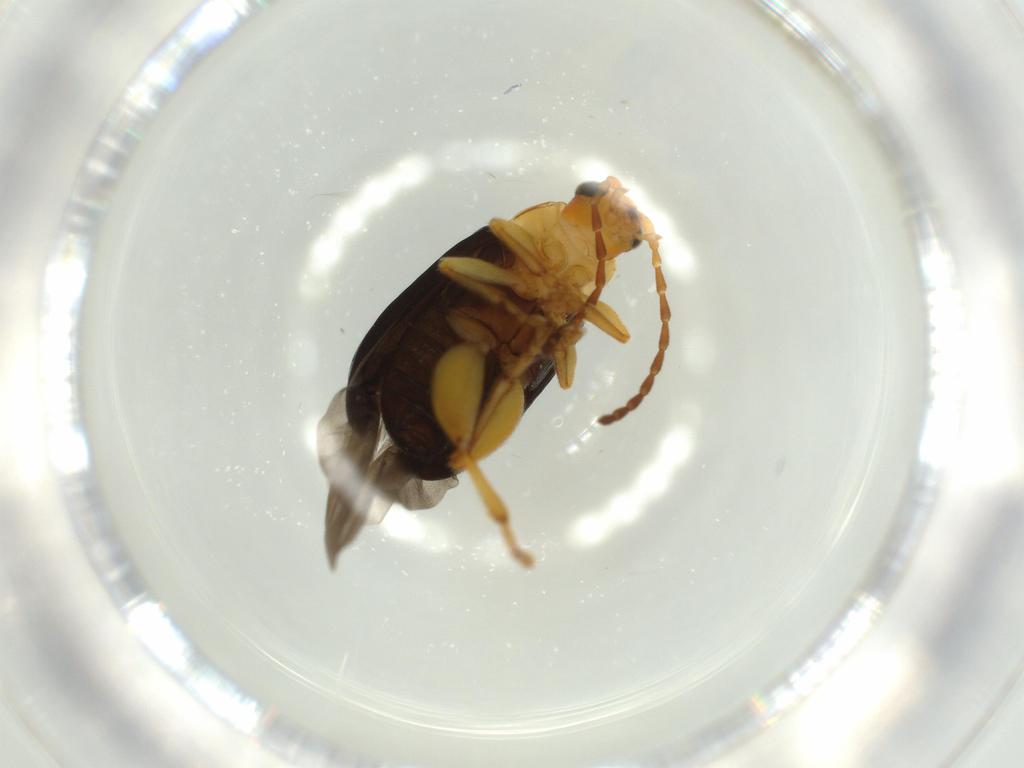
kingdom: Animalia
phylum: Arthropoda
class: Insecta
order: Coleoptera
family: Chrysomelidae
